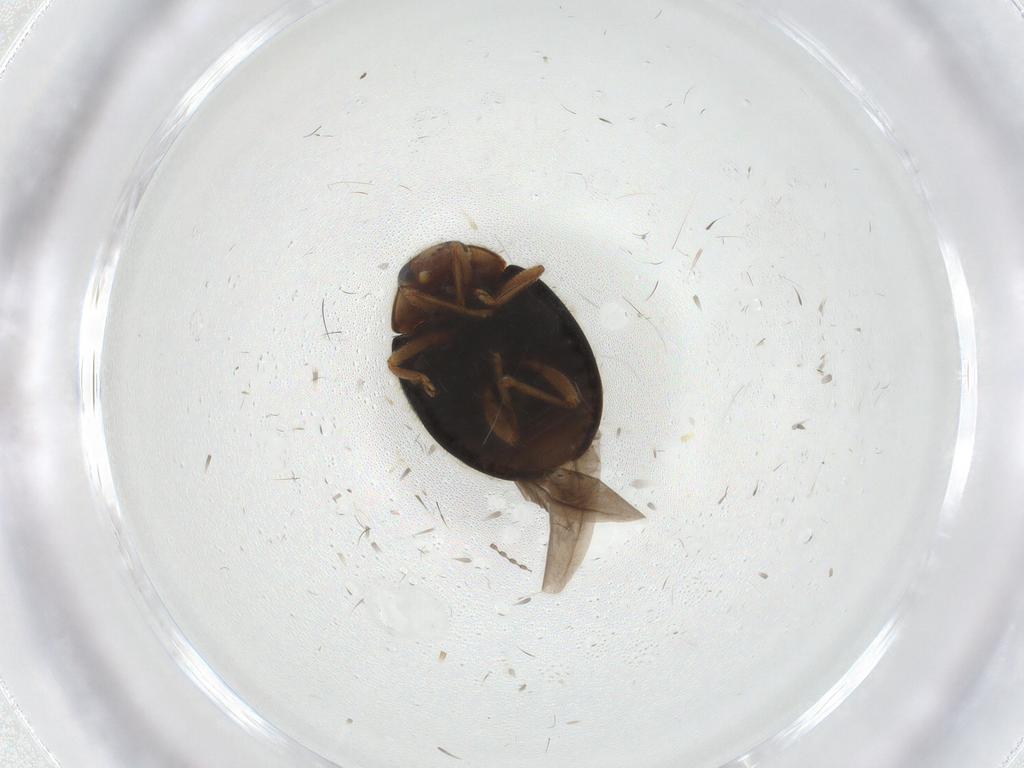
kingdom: Animalia
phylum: Arthropoda
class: Insecta
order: Coleoptera
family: Coccinellidae
